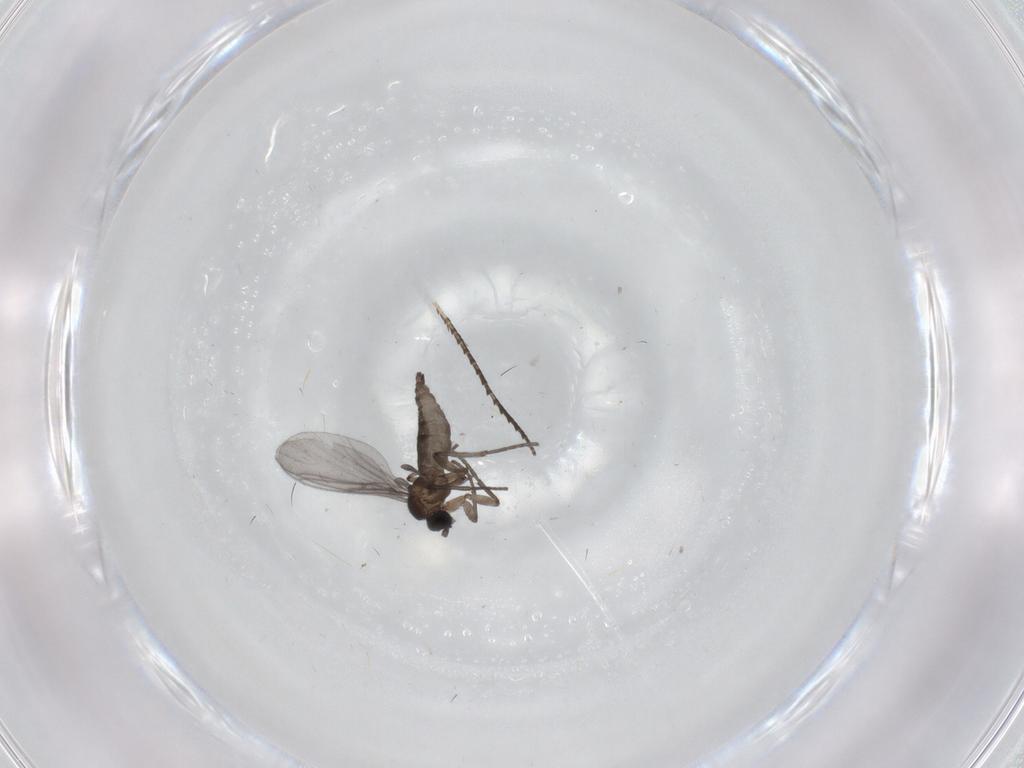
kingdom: Animalia
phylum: Arthropoda
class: Insecta
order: Diptera
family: Sciaridae
